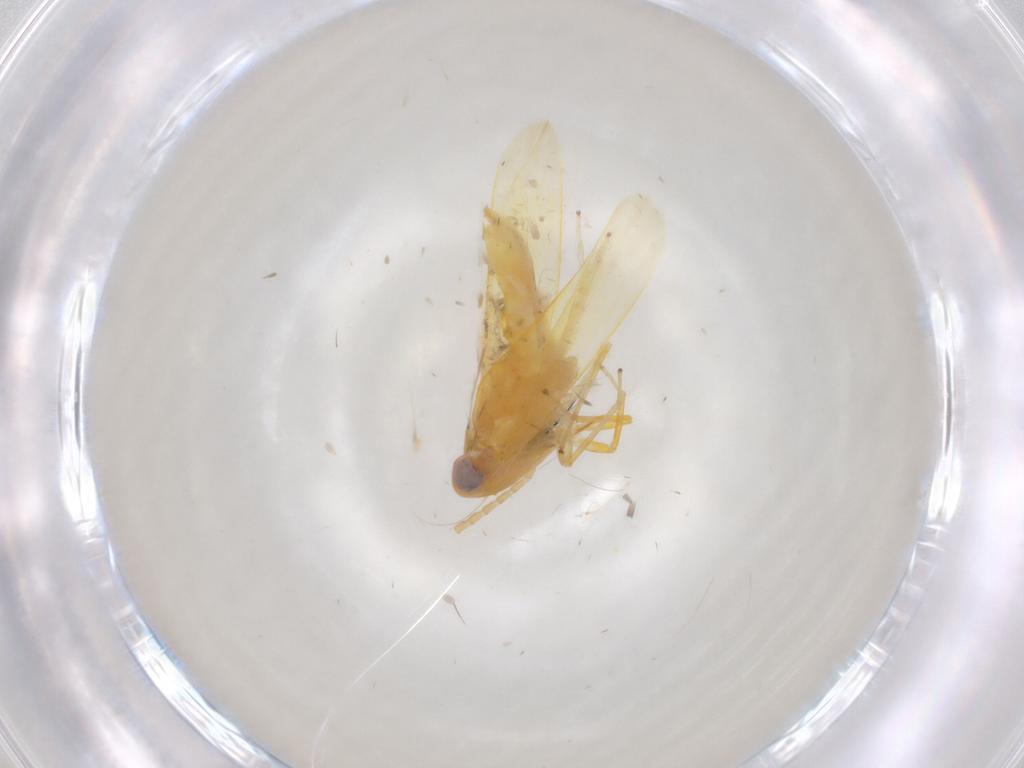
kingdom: Animalia
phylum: Arthropoda
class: Insecta
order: Hemiptera
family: Cicadellidae
